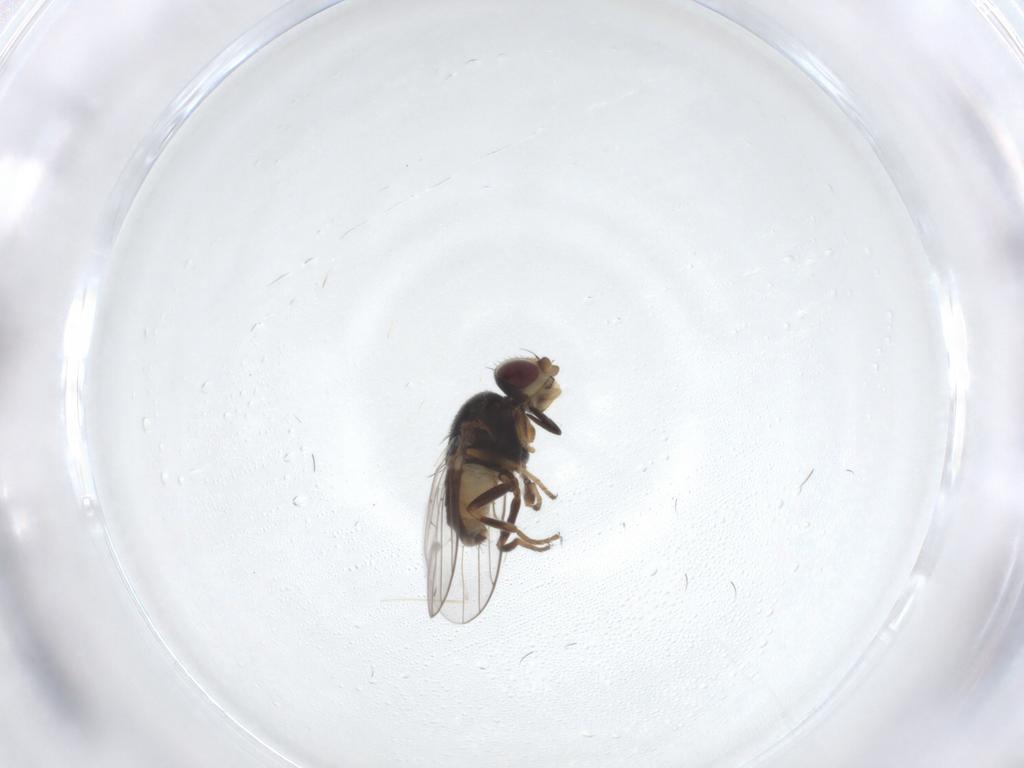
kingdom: Animalia
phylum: Arthropoda
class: Insecta
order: Diptera
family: Chloropidae
